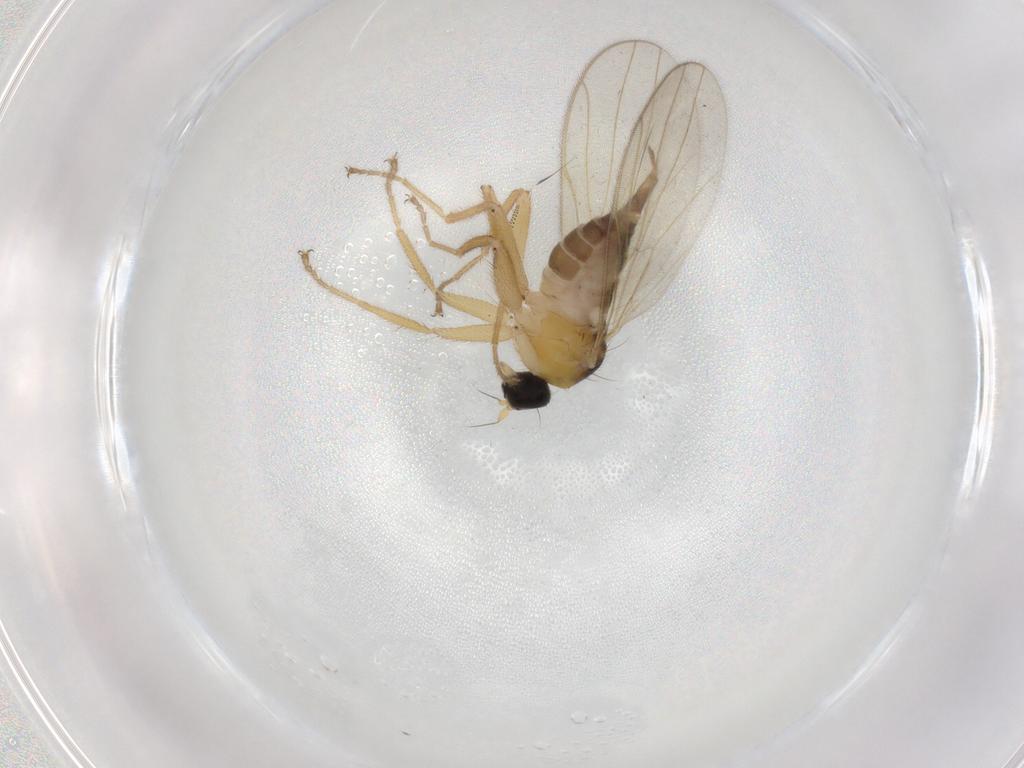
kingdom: Animalia
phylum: Arthropoda
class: Insecta
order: Diptera
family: Hybotidae
